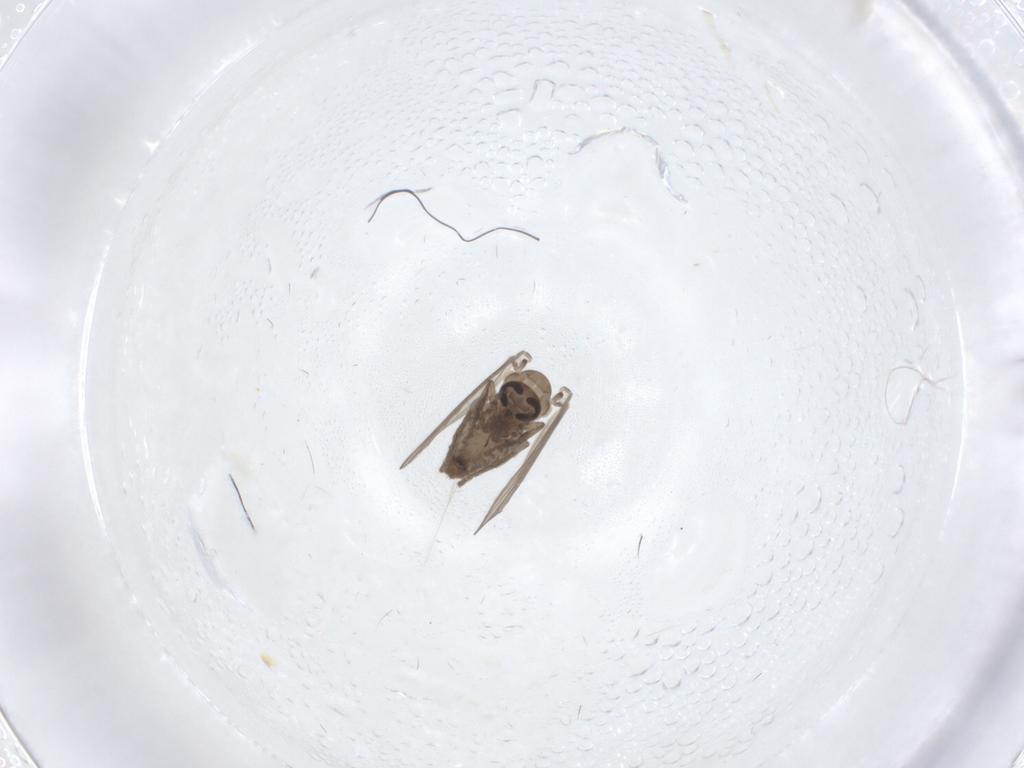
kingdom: Animalia
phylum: Arthropoda
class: Insecta
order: Diptera
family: Psychodidae
